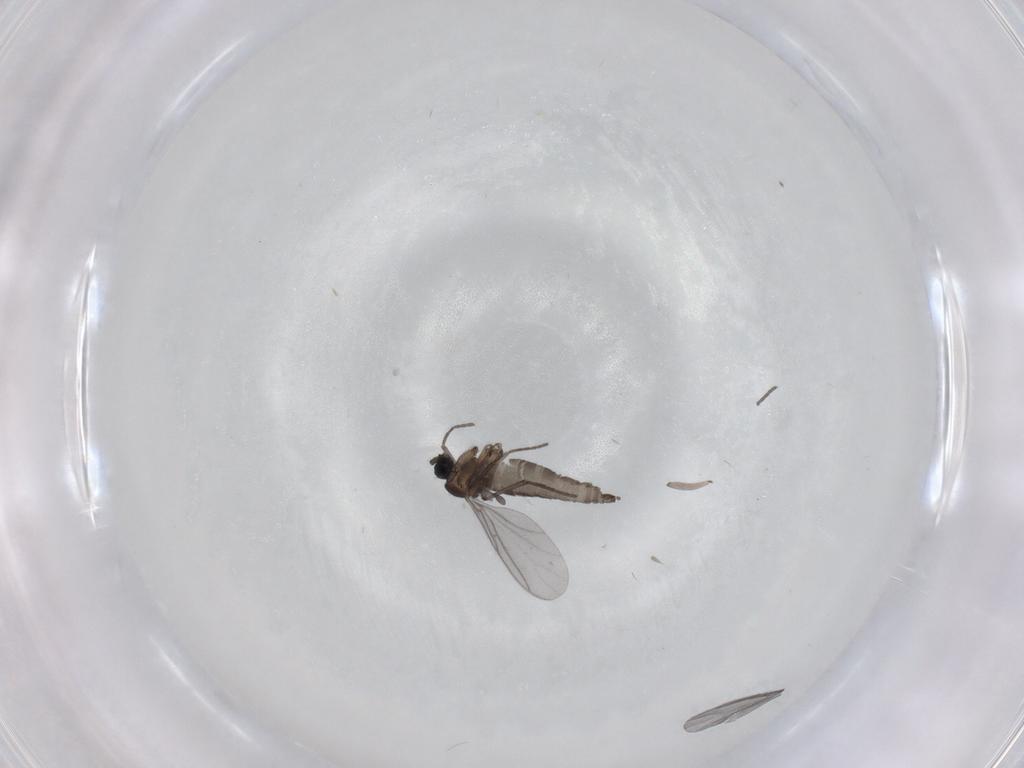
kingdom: Animalia
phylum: Arthropoda
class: Insecta
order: Diptera
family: Sciaridae
